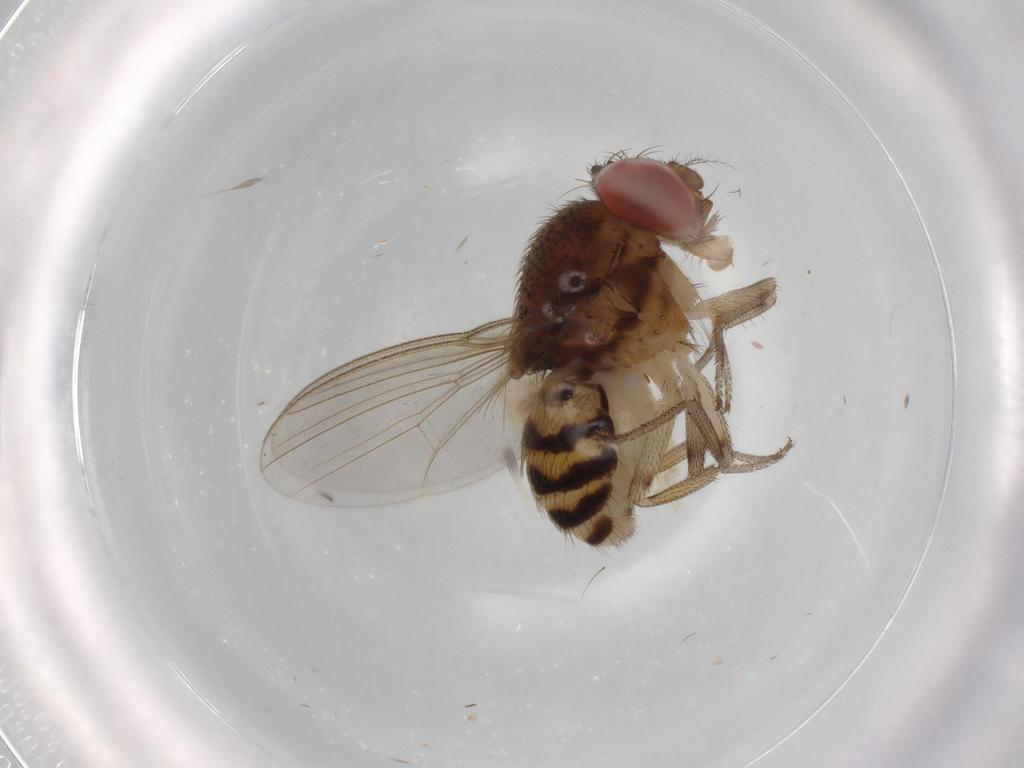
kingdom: Animalia
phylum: Arthropoda
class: Insecta
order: Diptera
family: Drosophilidae
